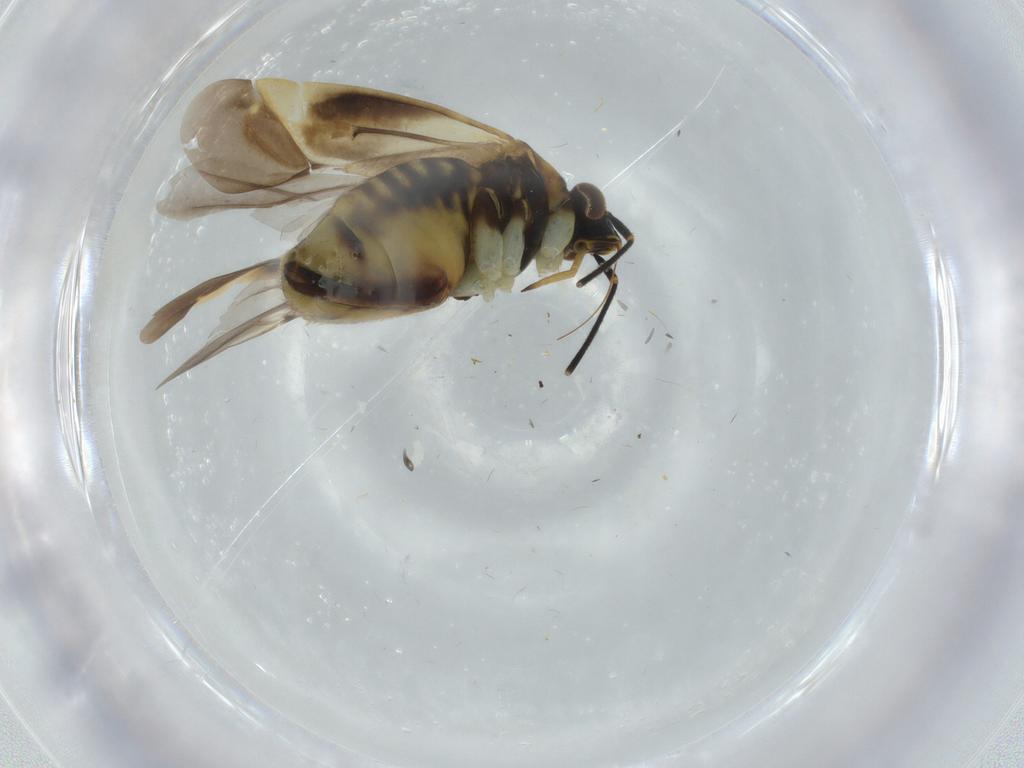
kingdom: Animalia
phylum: Arthropoda
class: Insecta
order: Hemiptera
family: Miridae
